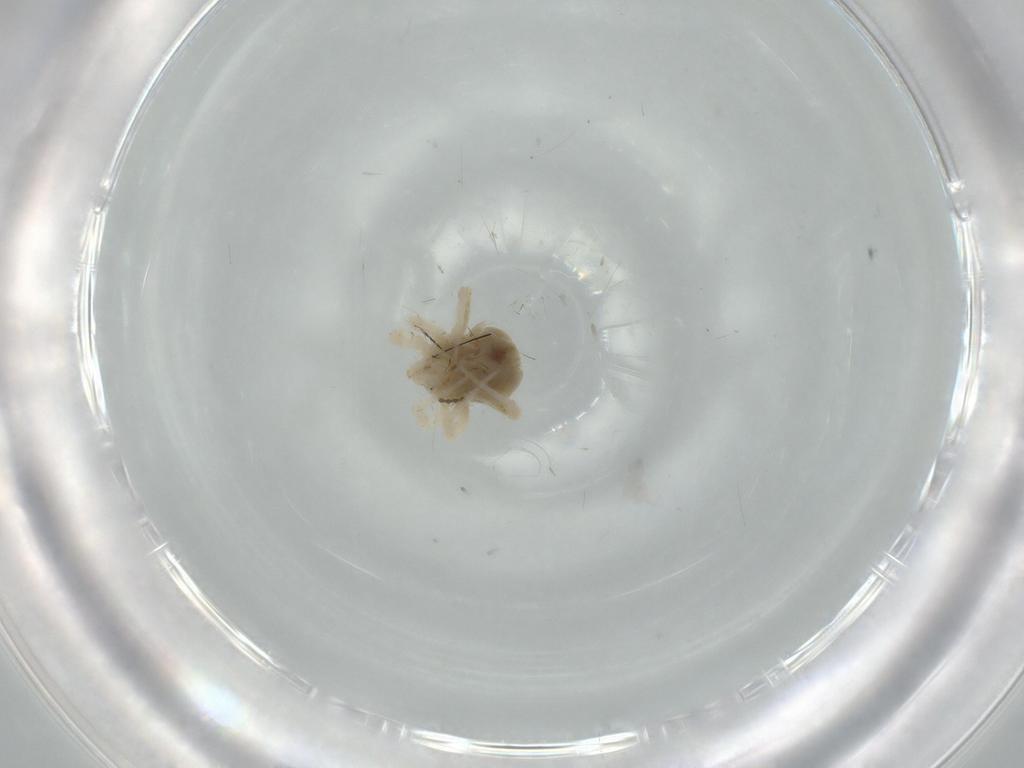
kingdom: Animalia
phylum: Arthropoda
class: Arachnida
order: Trombidiformes
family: Anystidae
